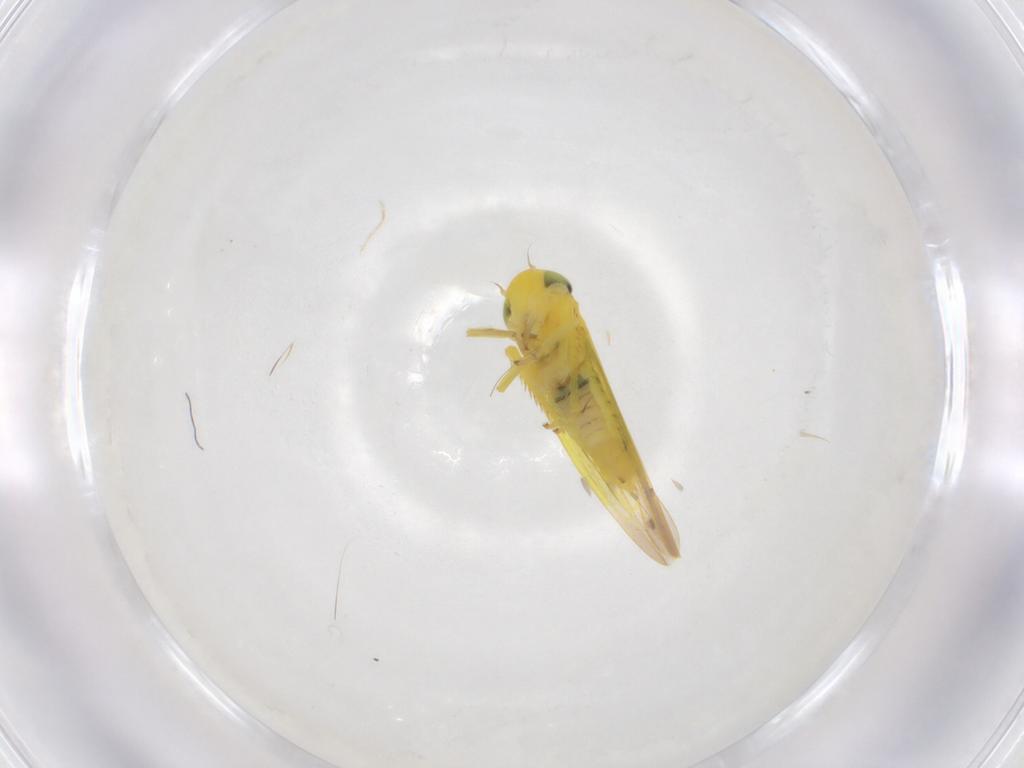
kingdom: Animalia
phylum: Arthropoda
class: Insecta
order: Hemiptera
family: Cicadellidae
